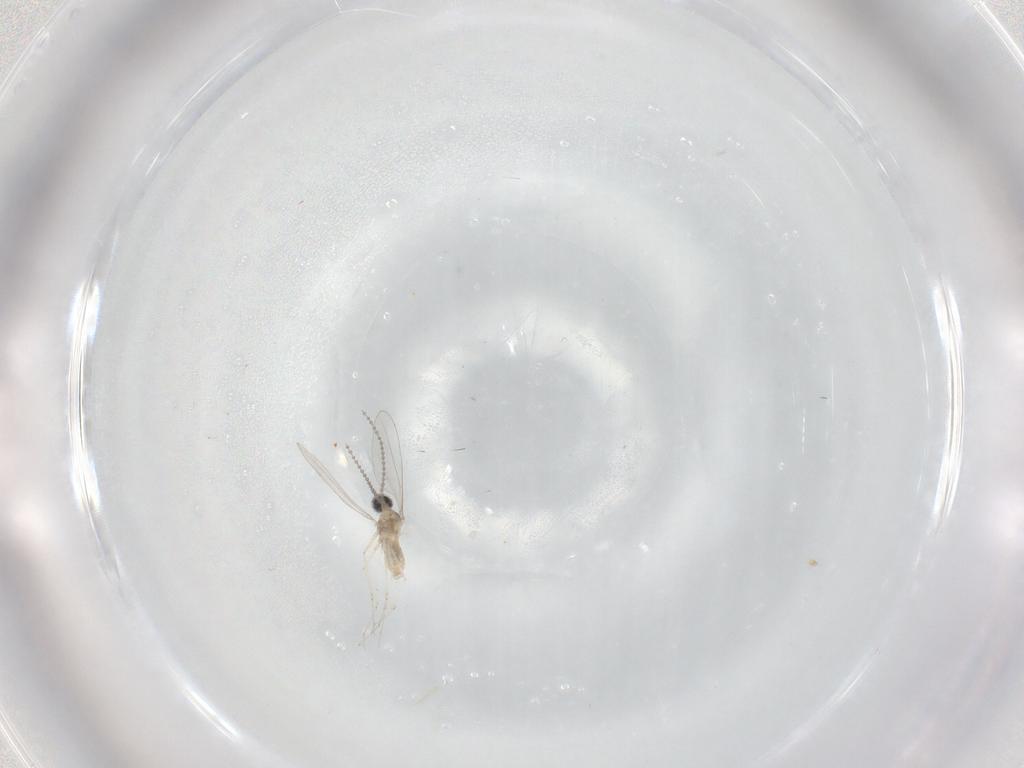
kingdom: Animalia
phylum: Arthropoda
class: Insecta
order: Diptera
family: Cecidomyiidae
